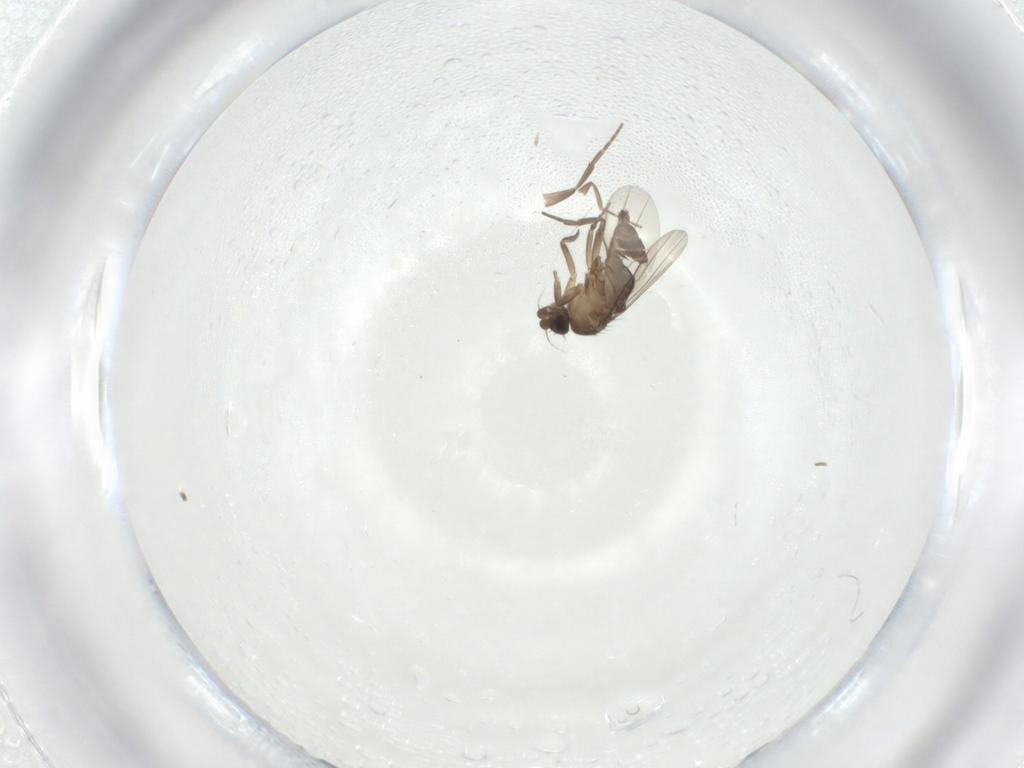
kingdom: Animalia
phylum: Arthropoda
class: Insecta
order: Diptera
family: Phoridae
